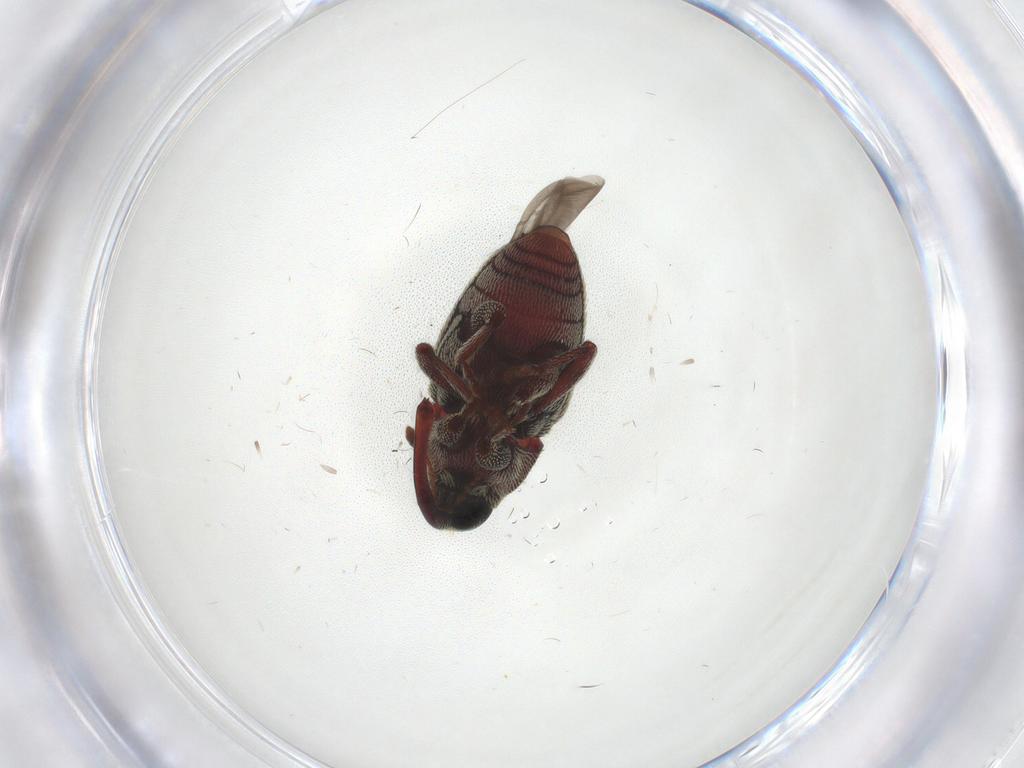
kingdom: Animalia
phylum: Arthropoda
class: Insecta
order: Coleoptera
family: Curculionidae
